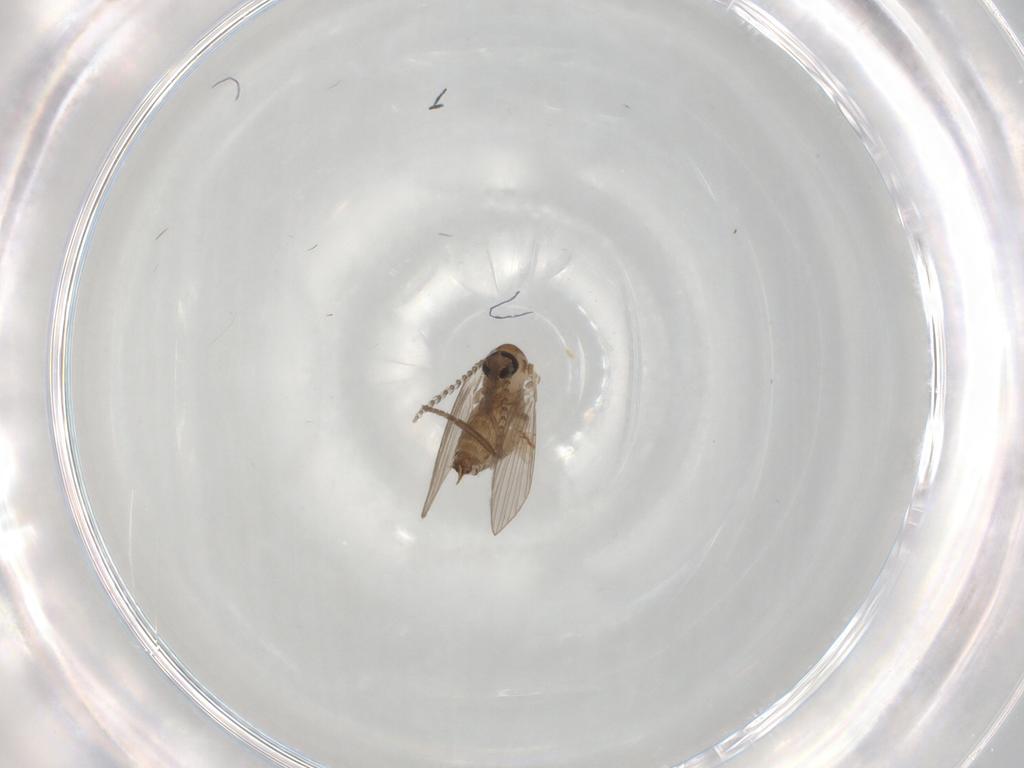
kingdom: Animalia
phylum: Arthropoda
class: Insecta
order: Diptera
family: Psychodidae
